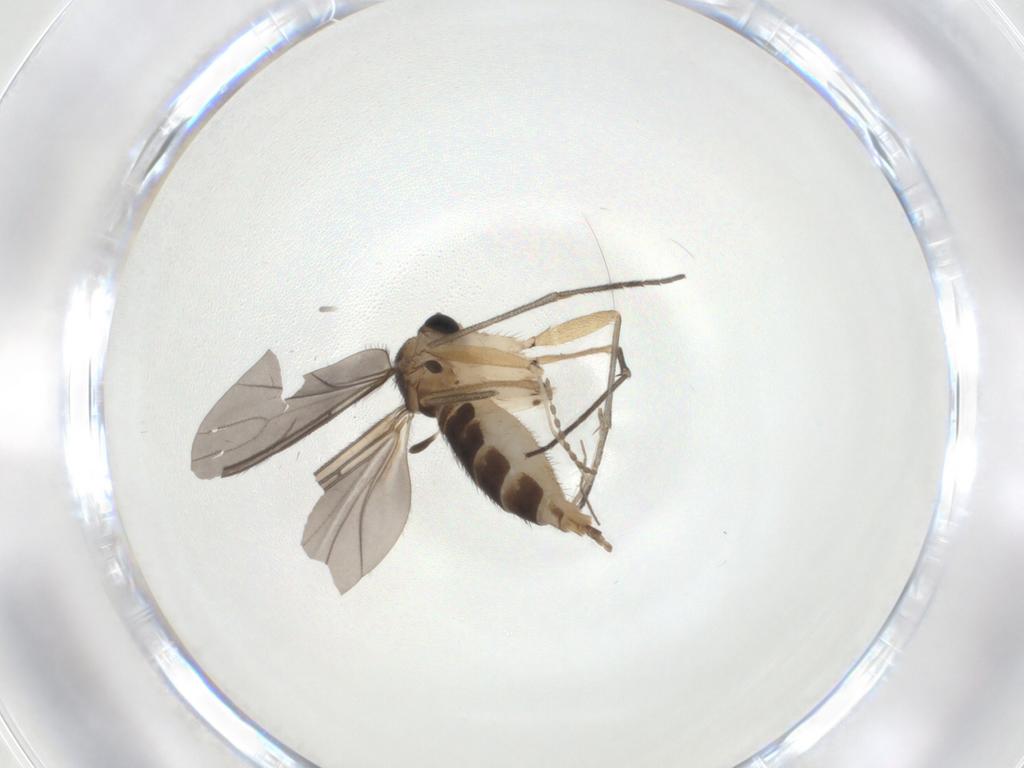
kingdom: Animalia
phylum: Arthropoda
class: Insecta
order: Diptera
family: Sciaridae
